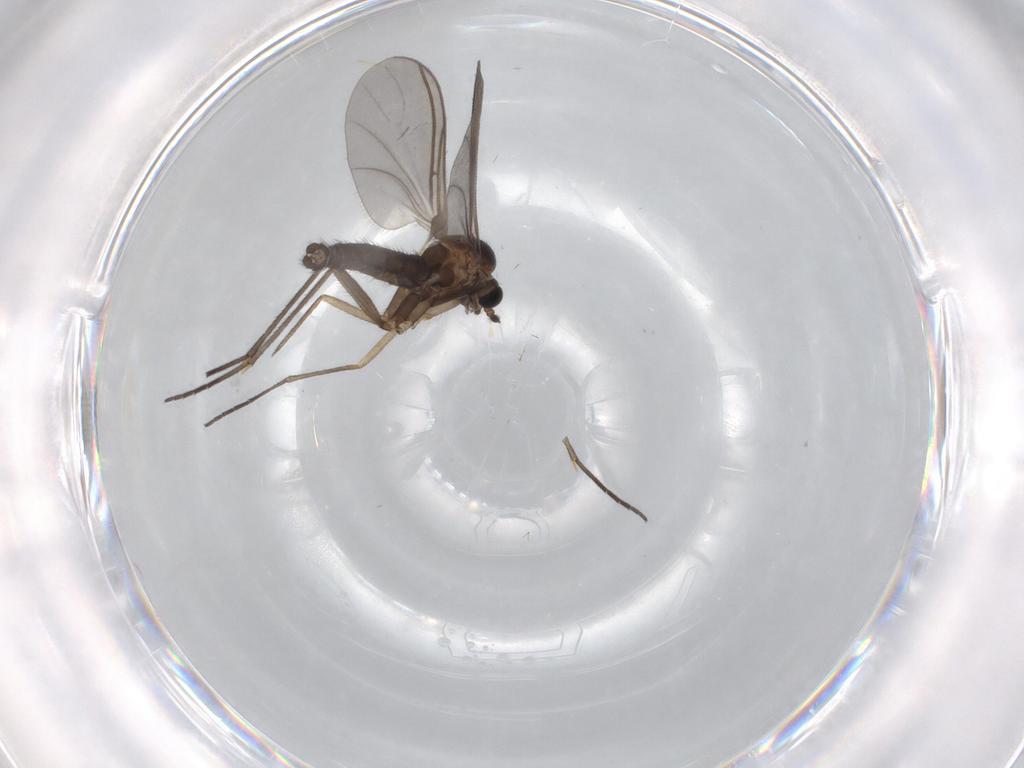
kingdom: Animalia
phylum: Arthropoda
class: Insecta
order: Diptera
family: Sciaridae
